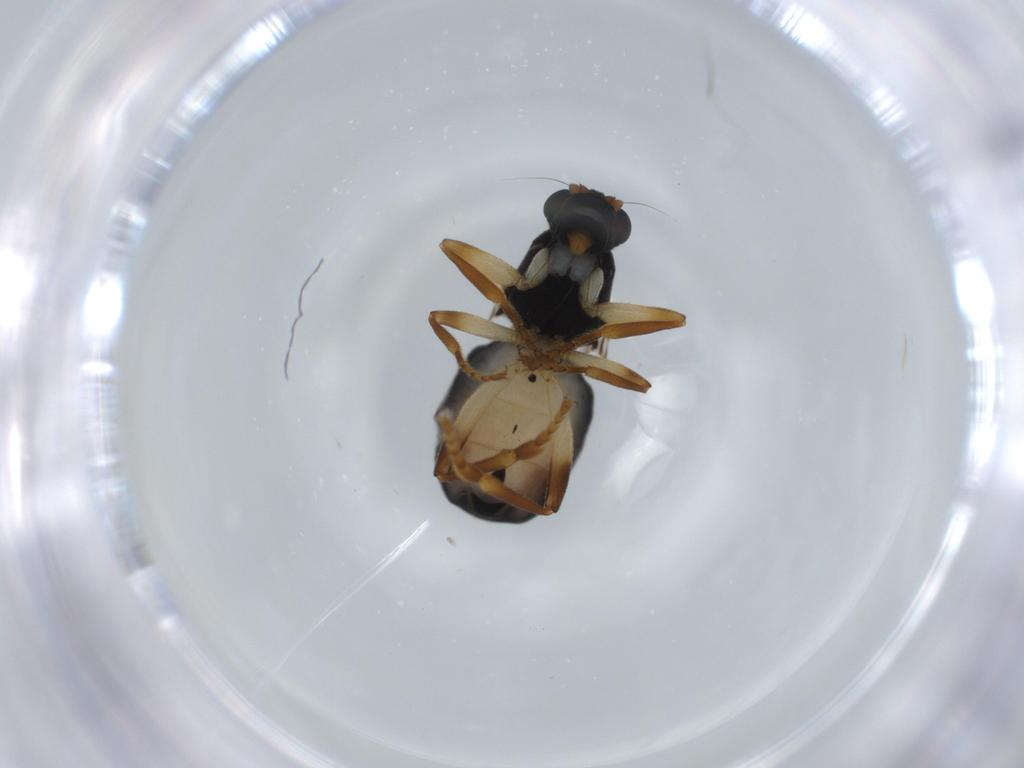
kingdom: Animalia
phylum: Arthropoda
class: Insecta
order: Diptera
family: Sphaeroceridae
